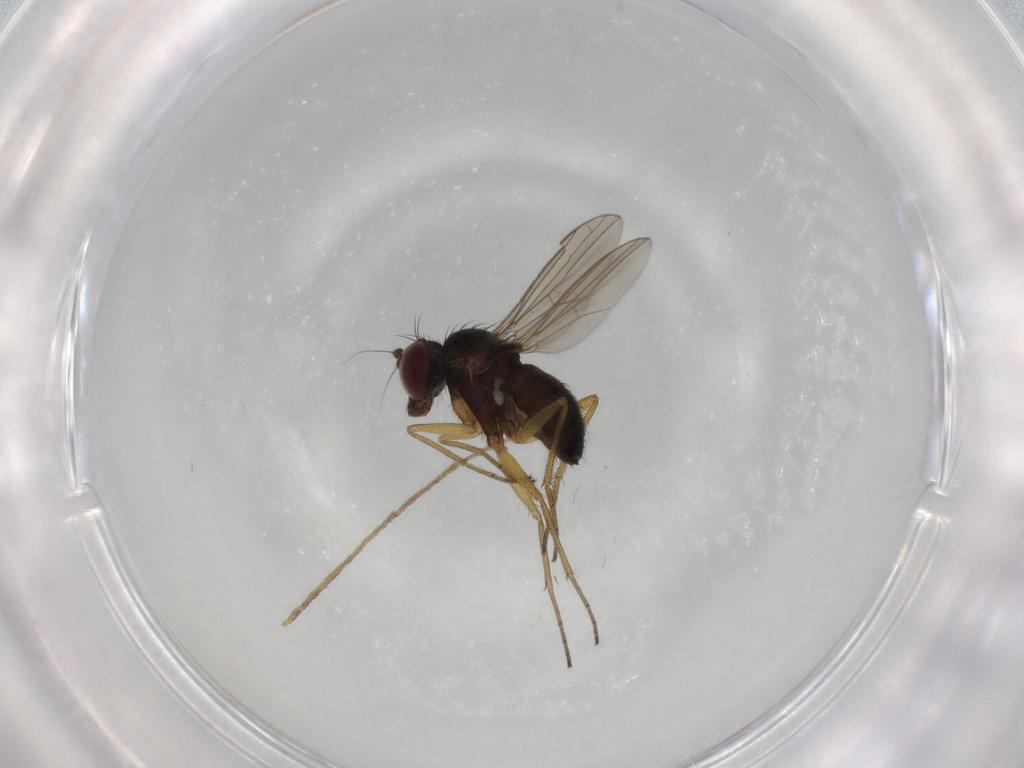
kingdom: Animalia
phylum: Arthropoda
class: Insecta
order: Diptera
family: Dolichopodidae
